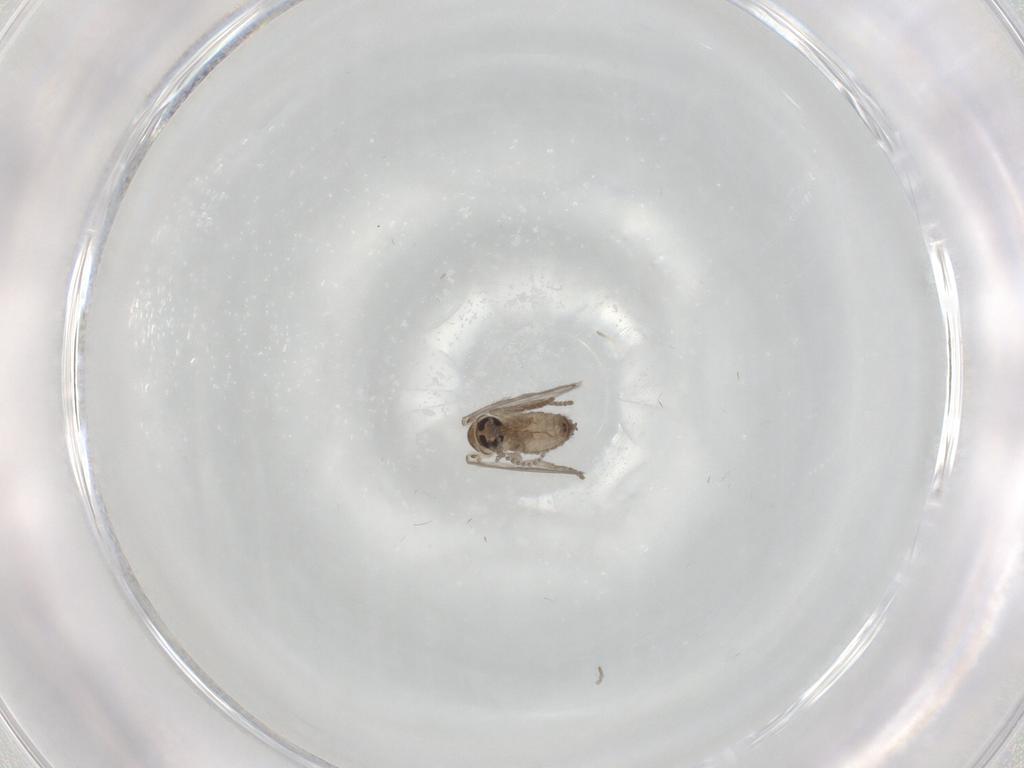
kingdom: Animalia
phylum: Arthropoda
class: Insecta
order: Diptera
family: Psychodidae
